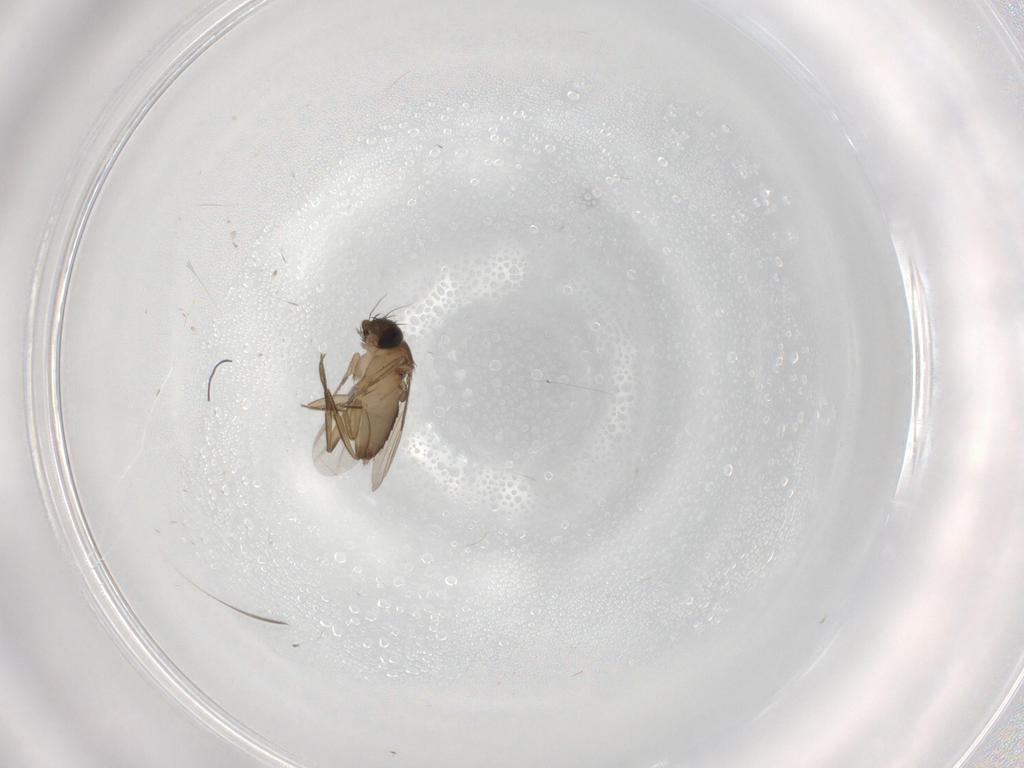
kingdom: Animalia
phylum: Arthropoda
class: Insecta
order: Diptera
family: Phoridae
